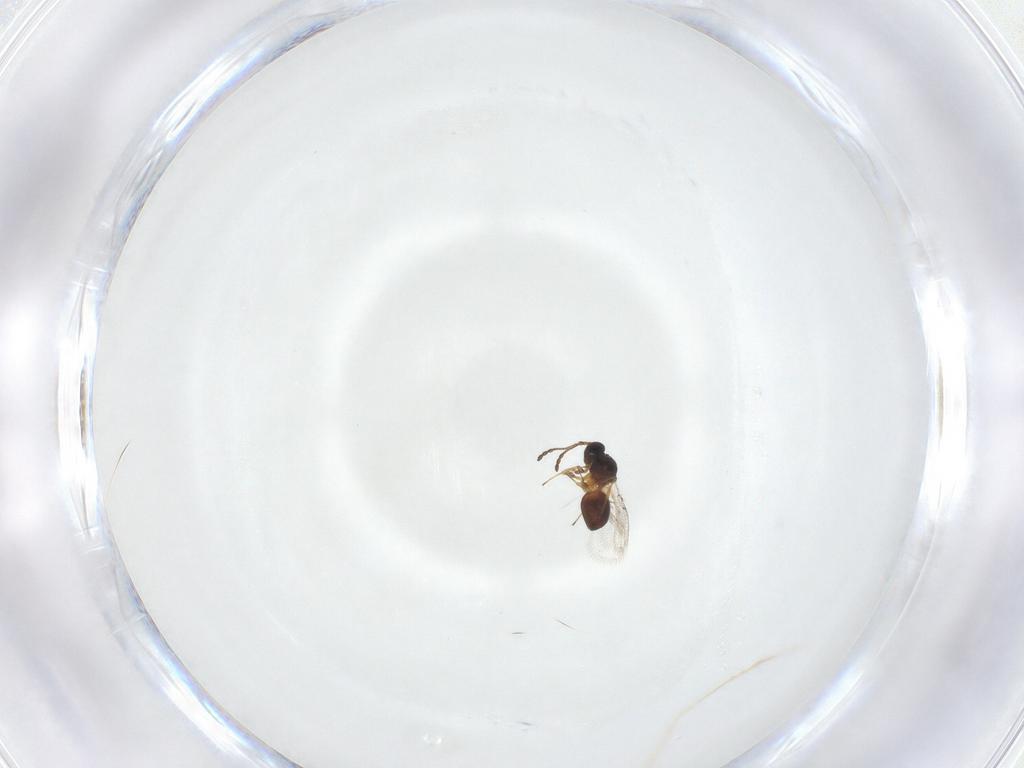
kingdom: Animalia
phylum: Arthropoda
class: Insecta
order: Hymenoptera
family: Figitidae
